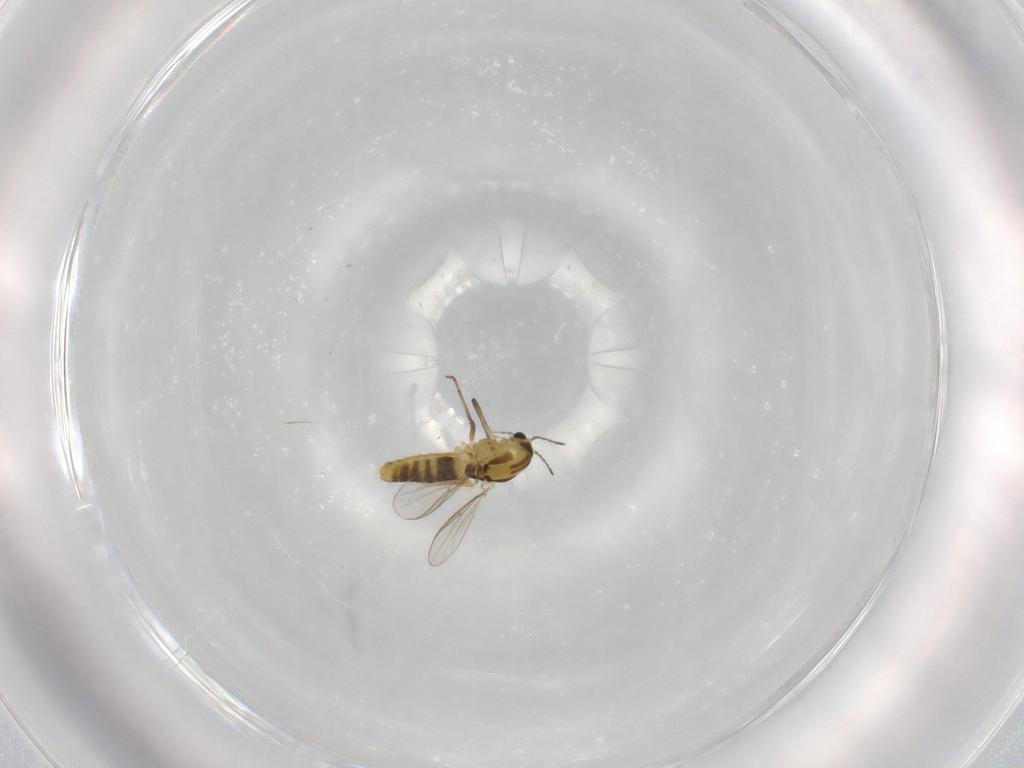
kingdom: Animalia
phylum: Arthropoda
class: Insecta
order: Diptera
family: Chironomidae
